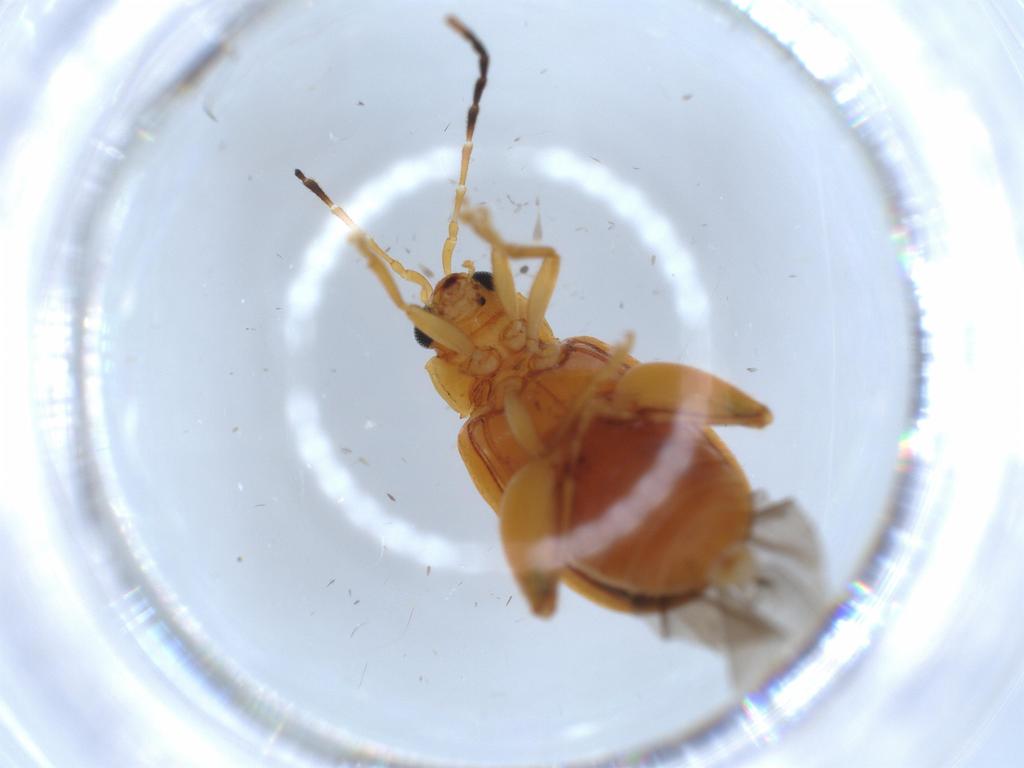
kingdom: Animalia
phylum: Arthropoda
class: Insecta
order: Coleoptera
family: Chrysomelidae
